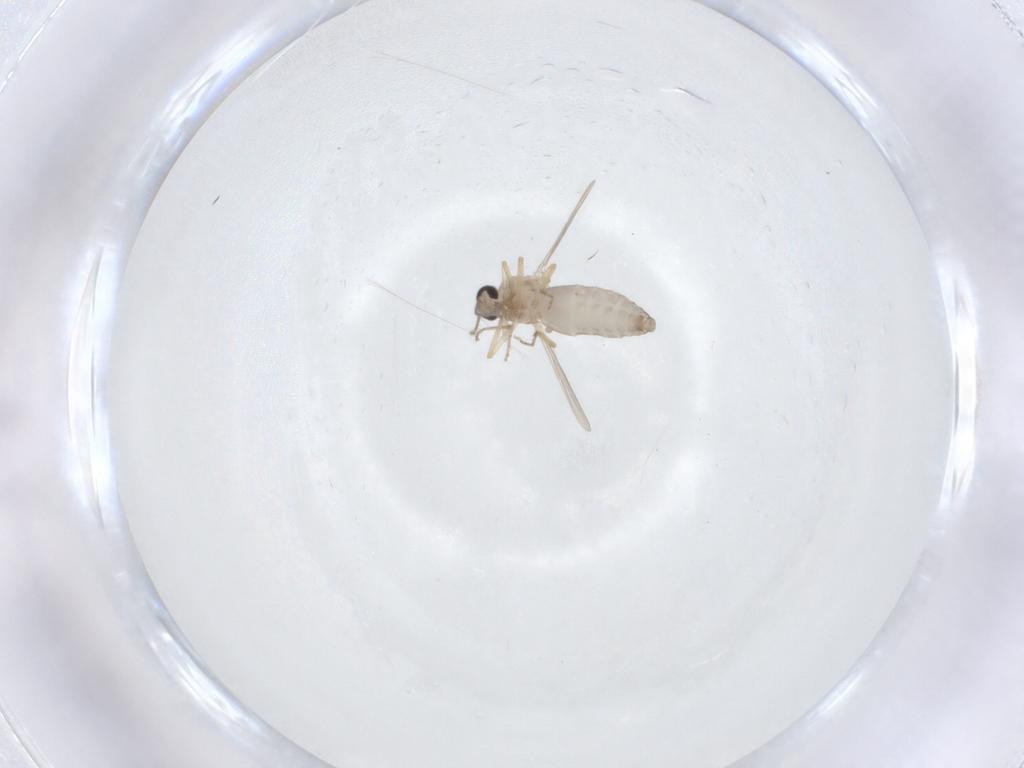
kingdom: Animalia
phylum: Arthropoda
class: Insecta
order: Diptera
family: Ceratopogonidae
